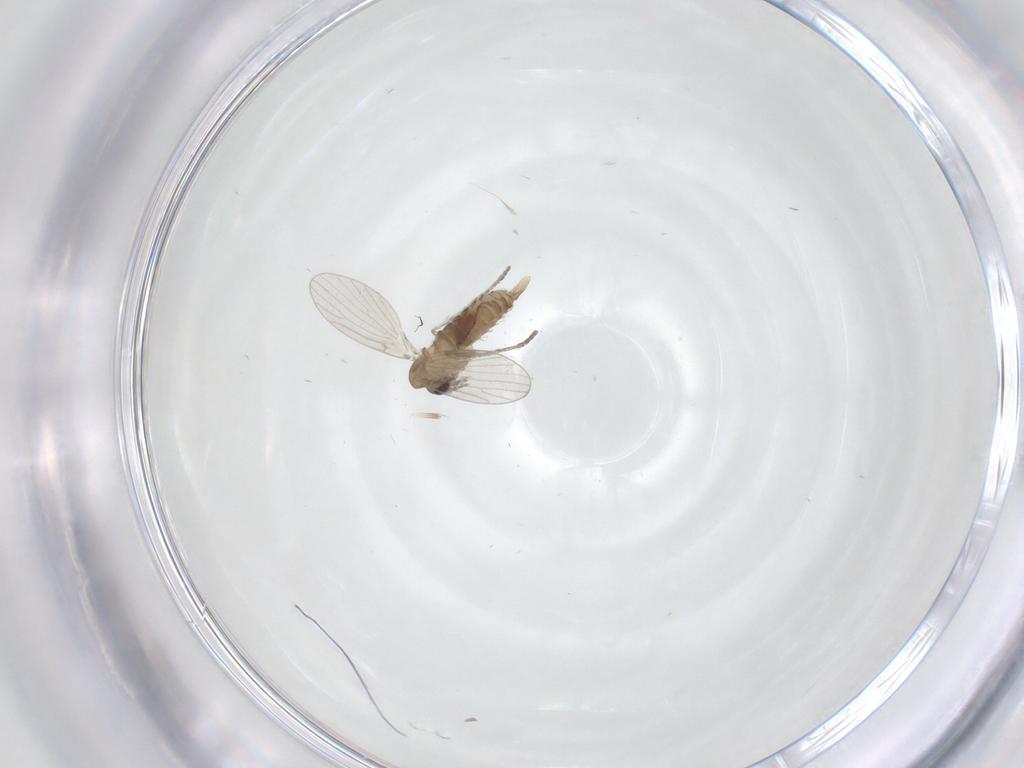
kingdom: Animalia
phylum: Arthropoda
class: Insecta
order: Diptera
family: Psychodidae
